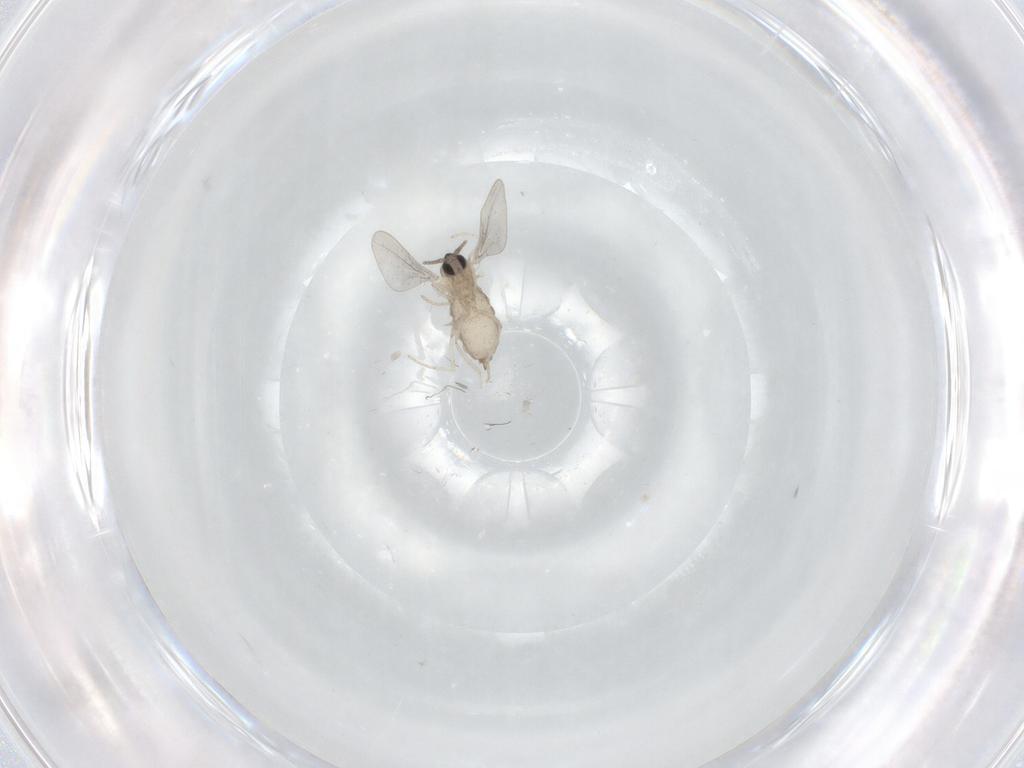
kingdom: Animalia
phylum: Arthropoda
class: Insecta
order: Diptera
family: Cecidomyiidae
